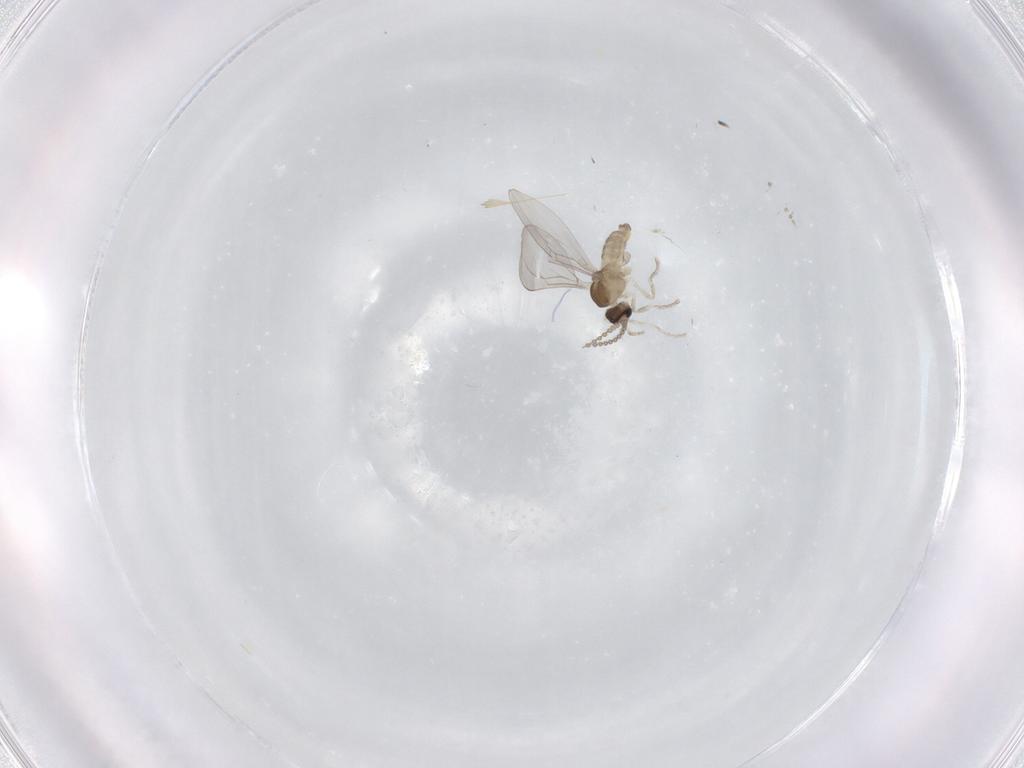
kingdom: Animalia
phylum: Arthropoda
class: Insecta
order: Diptera
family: Cecidomyiidae
